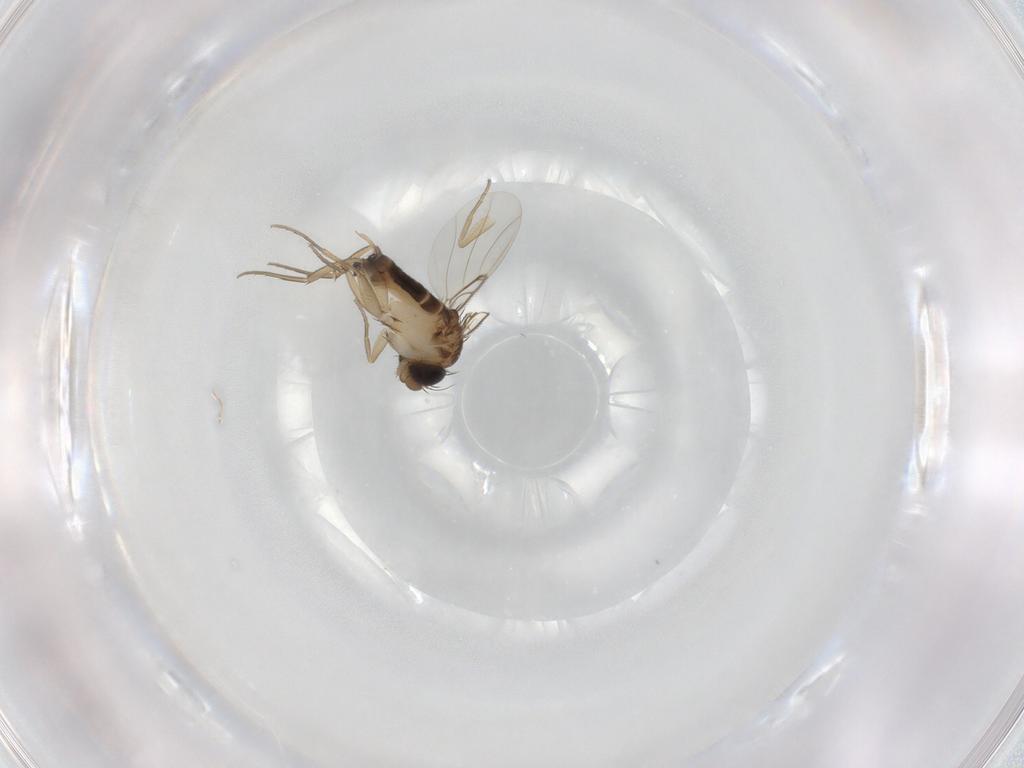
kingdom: Animalia
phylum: Arthropoda
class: Insecta
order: Diptera
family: Phoridae
